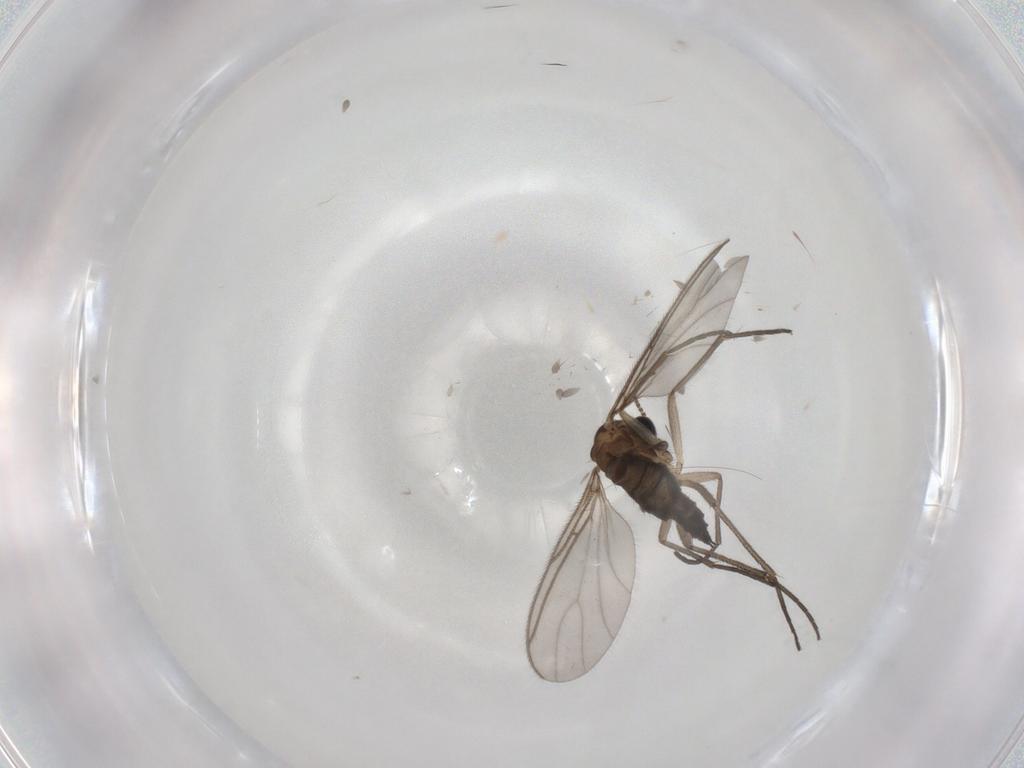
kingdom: Animalia
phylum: Arthropoda
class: Insecta
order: Diptera
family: Sciaridae
